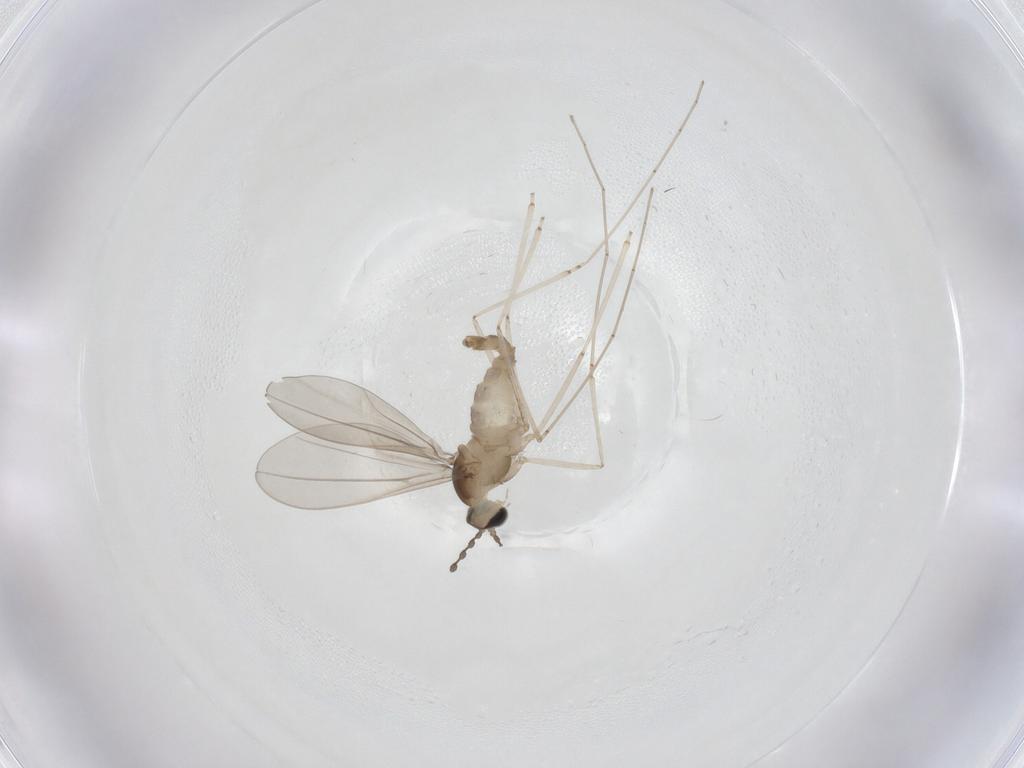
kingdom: Animalia
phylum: Arthropoda
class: Insecta
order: Diptera
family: Cecidomyiidae
